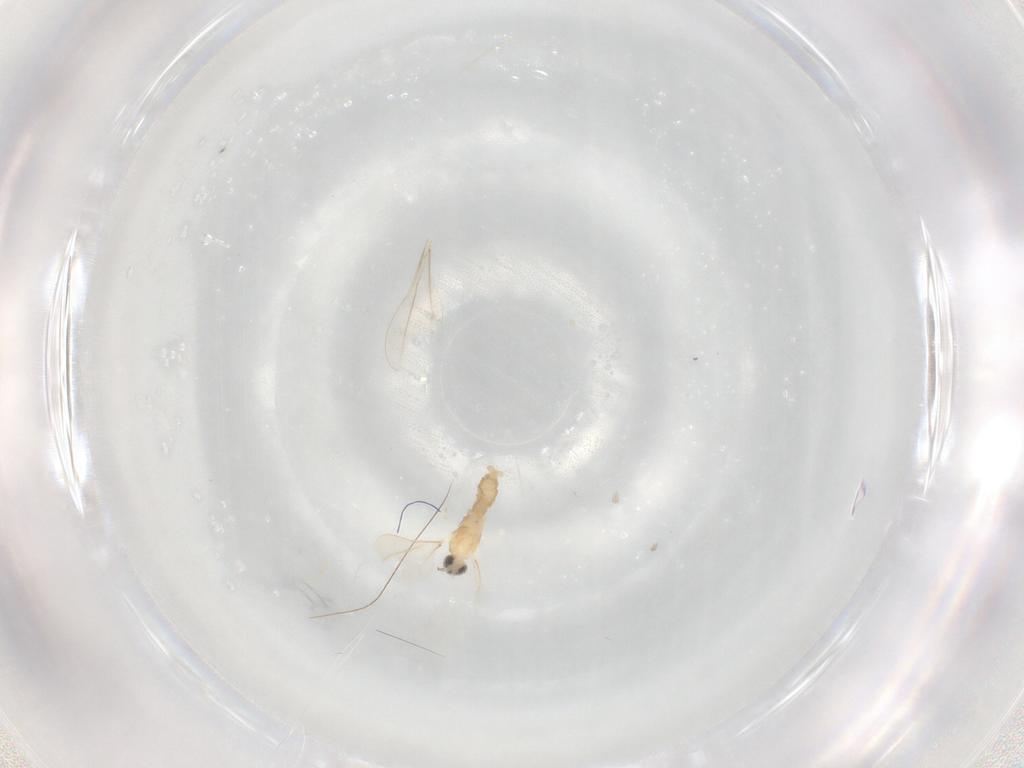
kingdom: Animalia
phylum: Arthropoda
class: Insecta
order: Diptera
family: Cecidomyiidae
